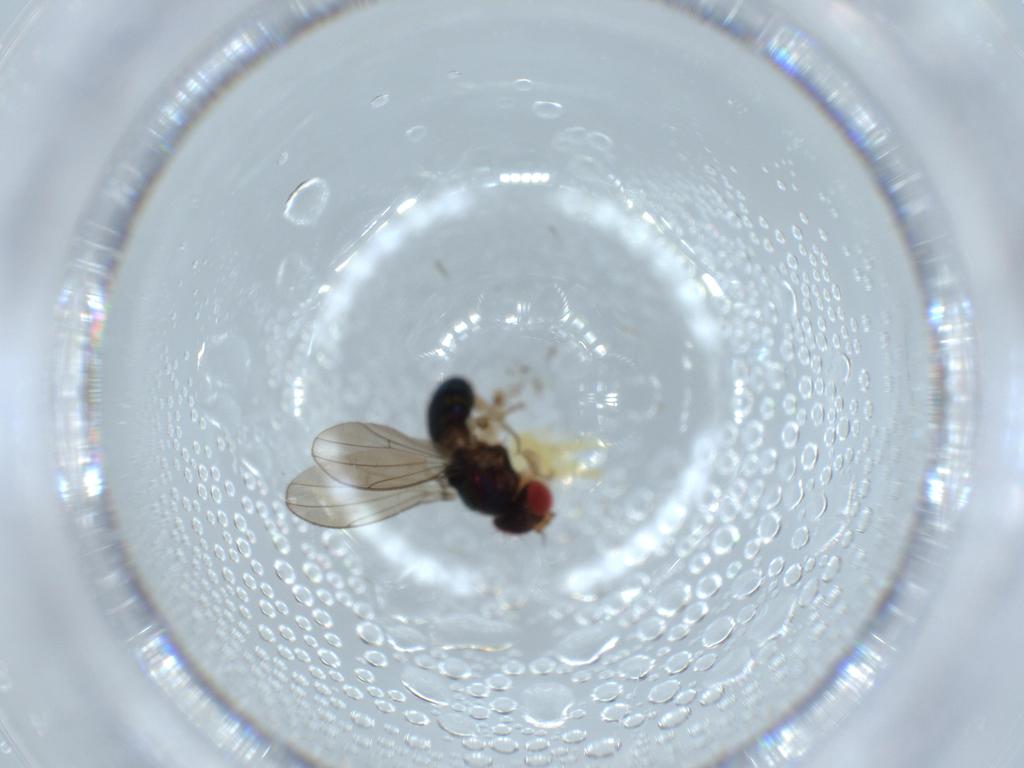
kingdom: Animalia
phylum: Arthropoda
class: Insecta
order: Diptera
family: Drosophilidae
